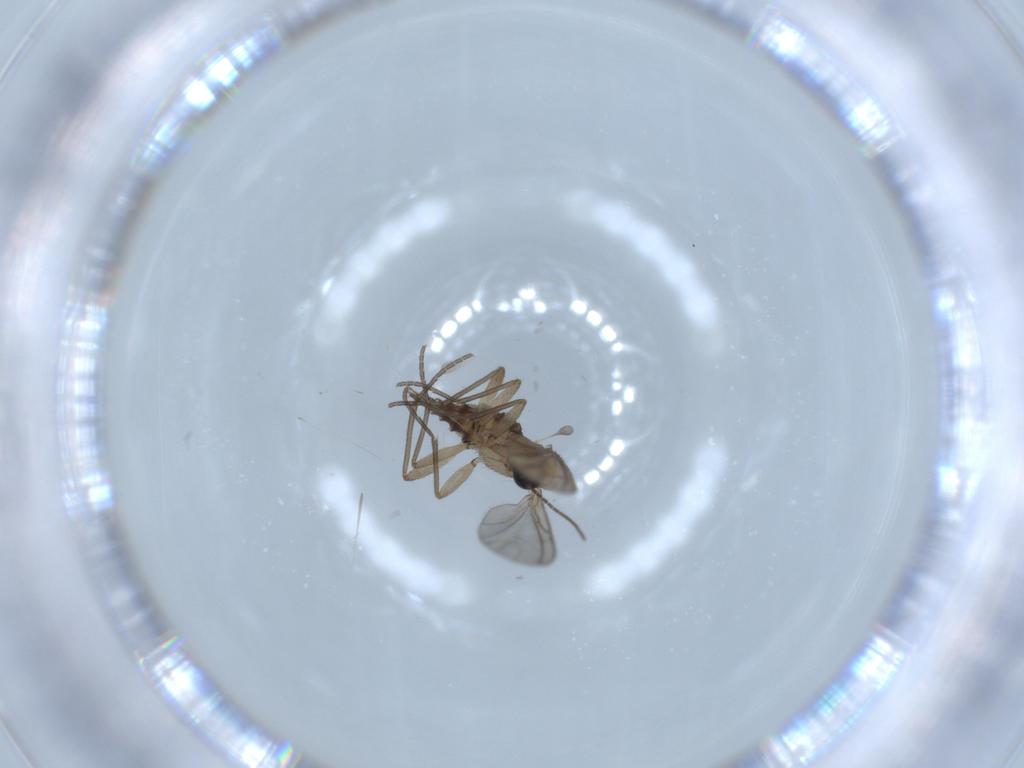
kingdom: Animalia
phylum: Arthropoda
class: Insecta
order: Diptera
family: Sciaridae
